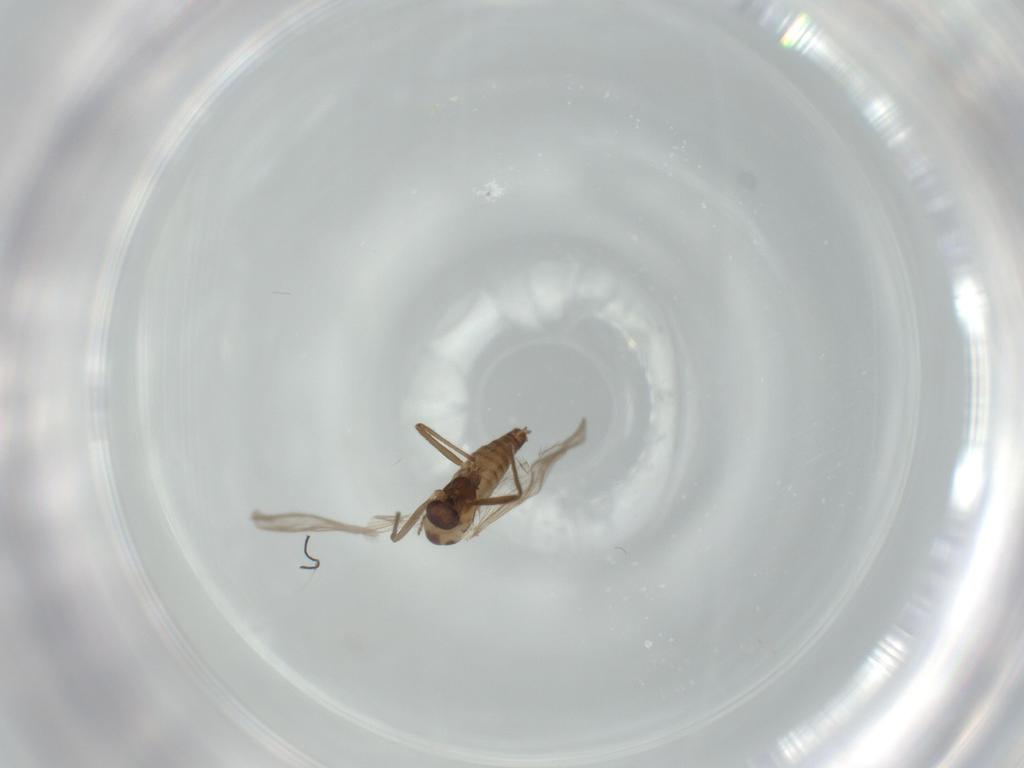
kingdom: Animalia
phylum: Arthropoda
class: Insecta
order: Diptera
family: Chironomidae
